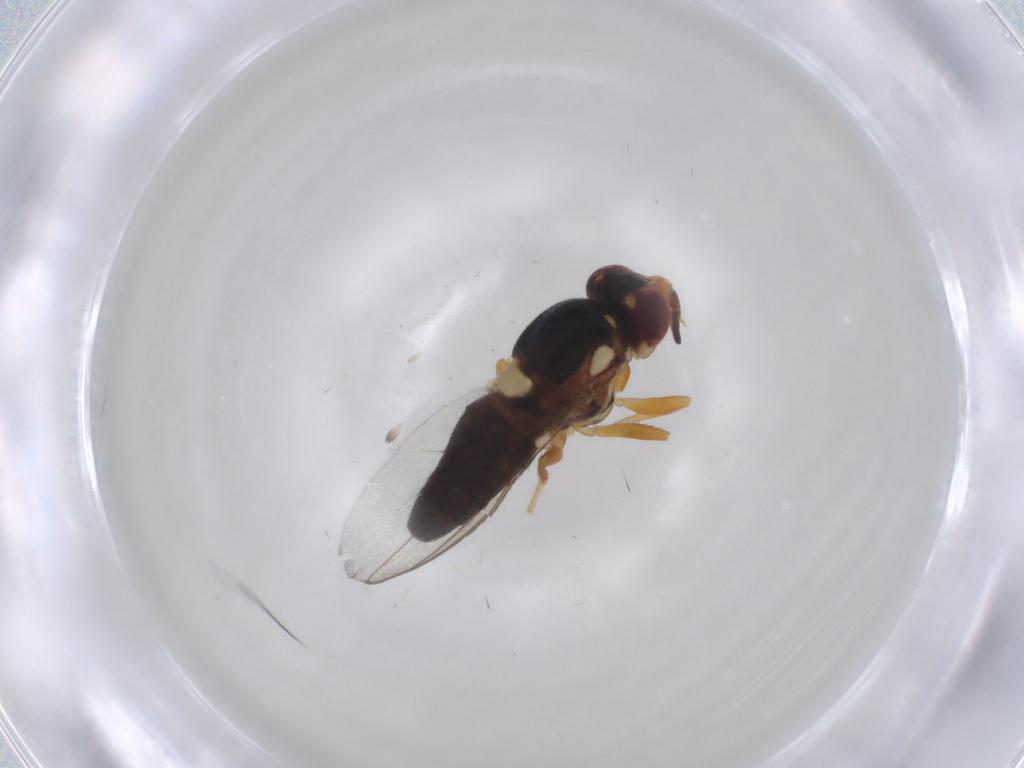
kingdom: Animalia
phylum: Arthropoda
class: Insecta
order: Diptera
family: Chloropidae
